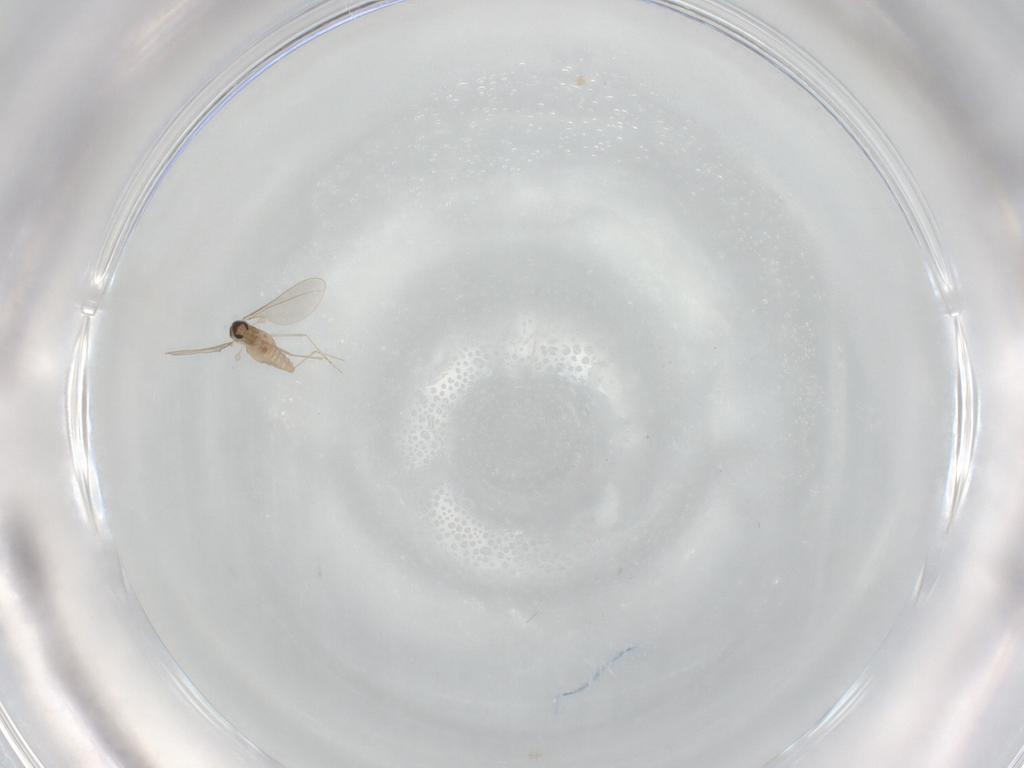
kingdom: Animalia
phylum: Arthropoda
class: Insecta
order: Diptera
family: Cecidomyiidae
